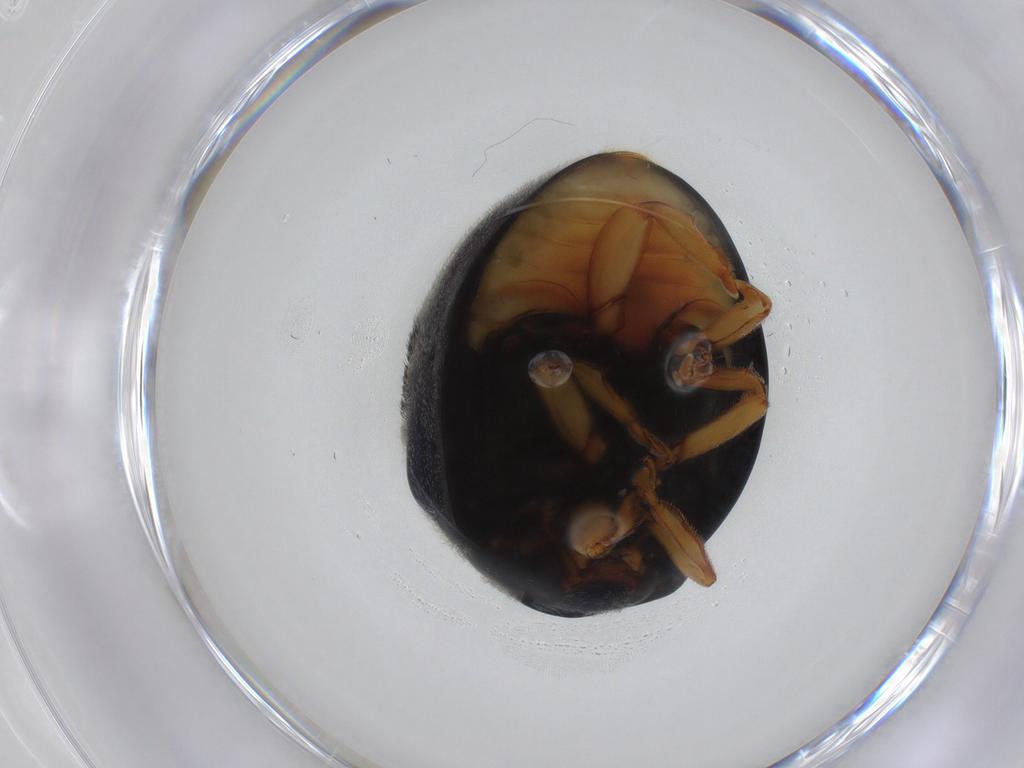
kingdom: Animalia
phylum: Arthropoda
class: Insecta
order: Coleoptera
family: Coccinellidae
